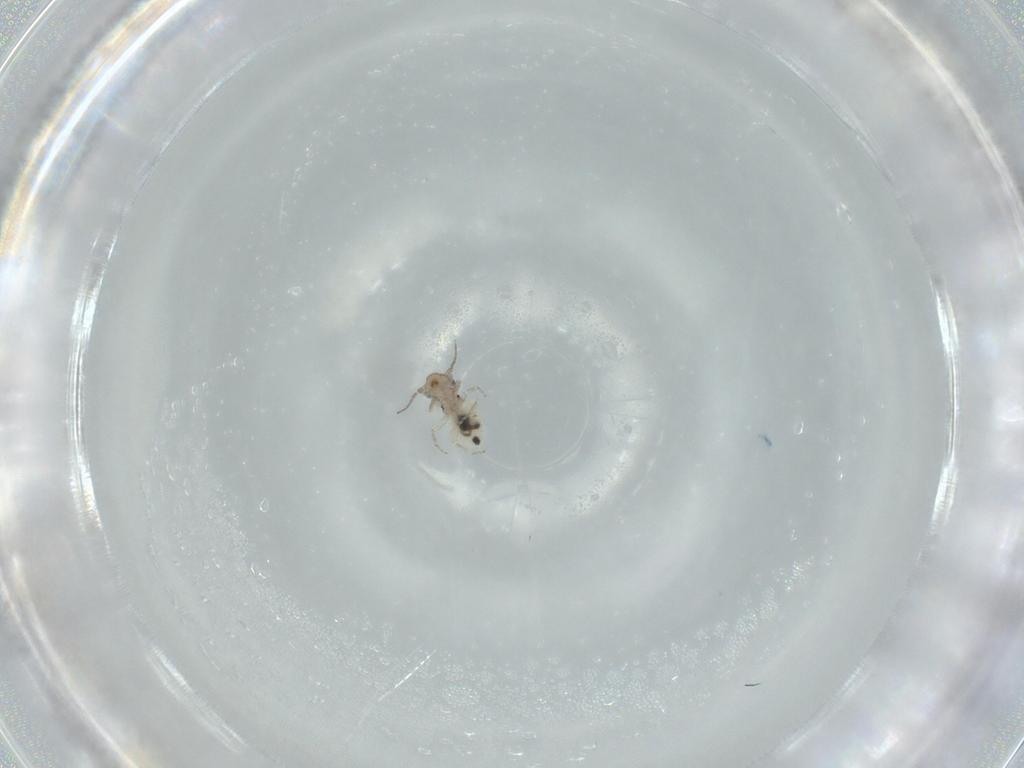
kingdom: Animalia
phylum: Arthropoda
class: Insecta
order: Psocodea
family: Lepidopsocidae
